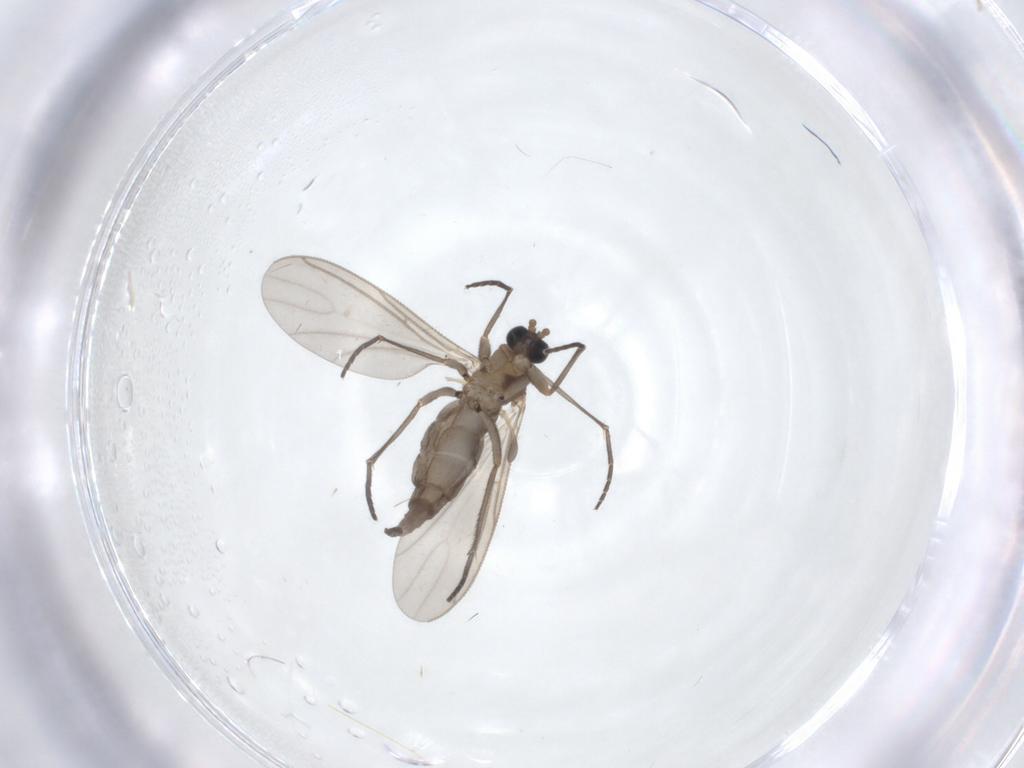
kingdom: Animalia
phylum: Arthropoda
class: Insecta
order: Diptera
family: Sciaridae
